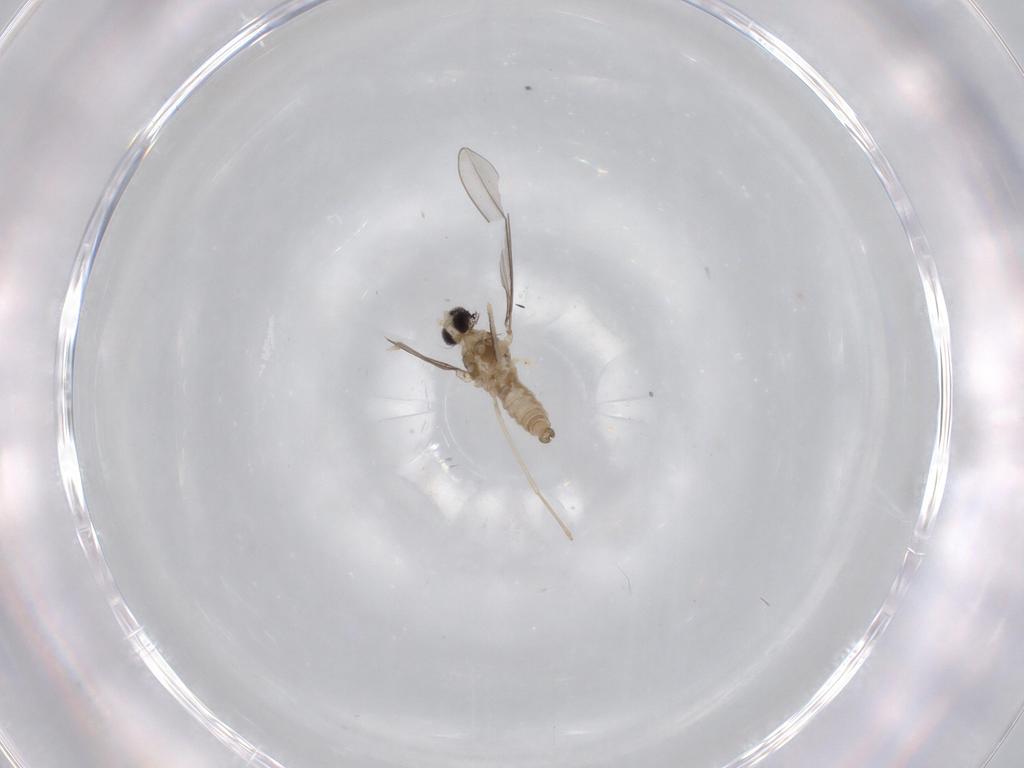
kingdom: Animalia
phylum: Arthropoda
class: Insecta
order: Diptera
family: Cecidomyiidae
